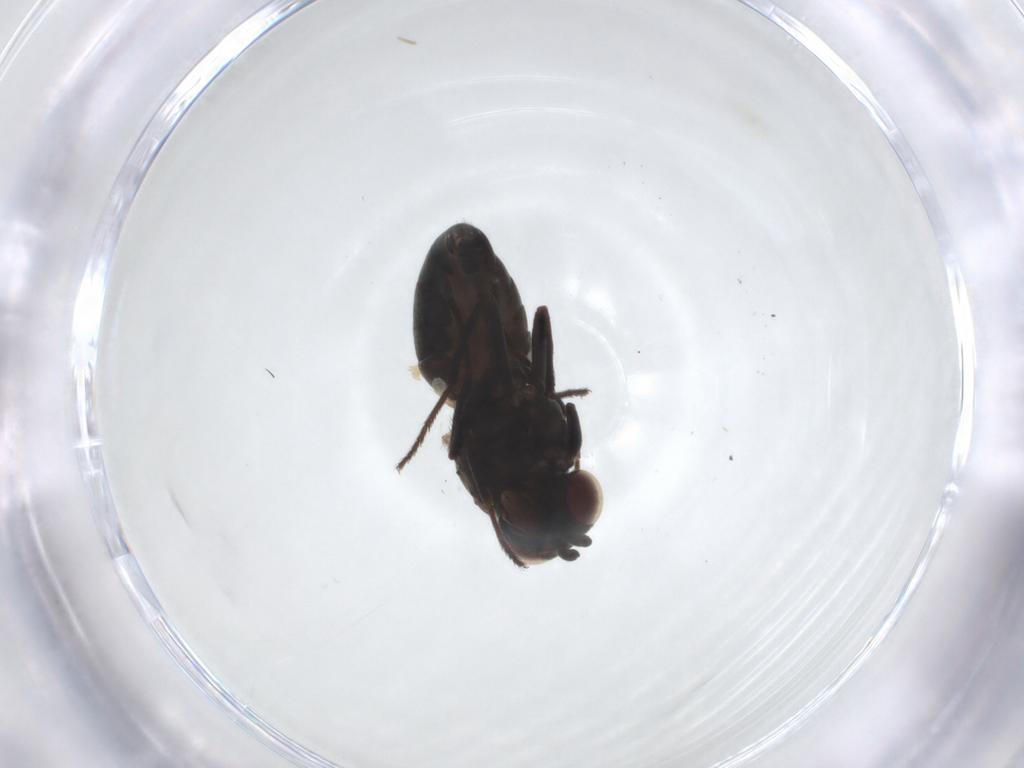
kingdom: Animalia
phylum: Arthropoda
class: Insecta
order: Diptera
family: Ephydridae
